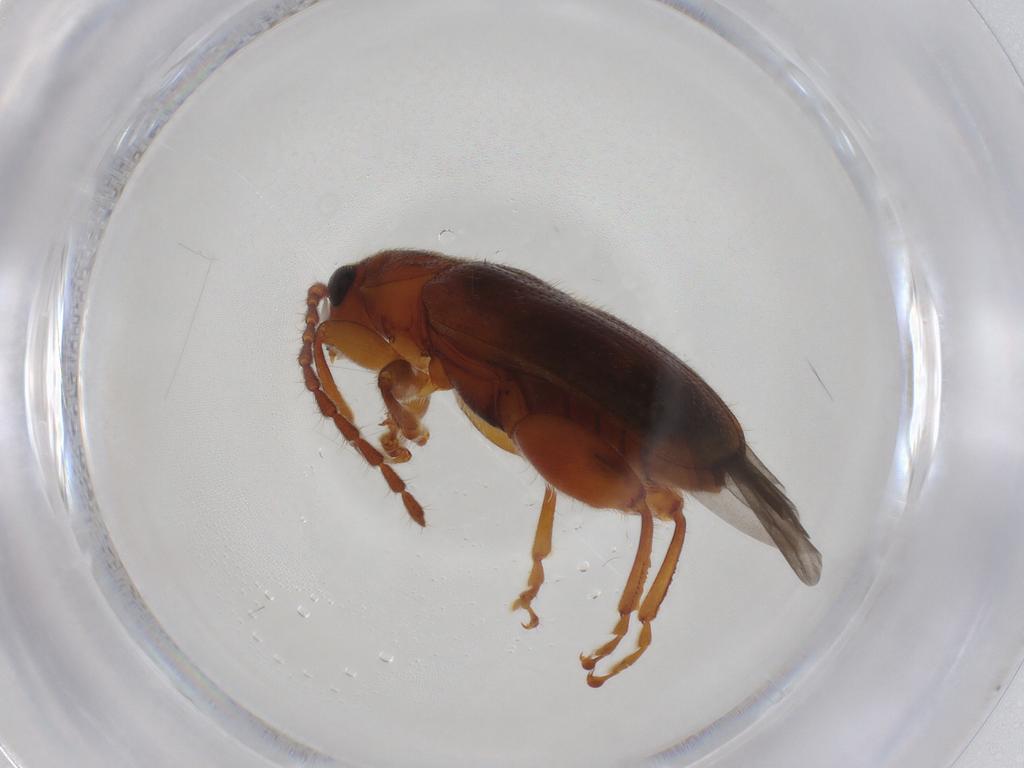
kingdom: Animalia
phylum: Arthropoda
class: Insecta
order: Coleoptera
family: Chrysomelidae
